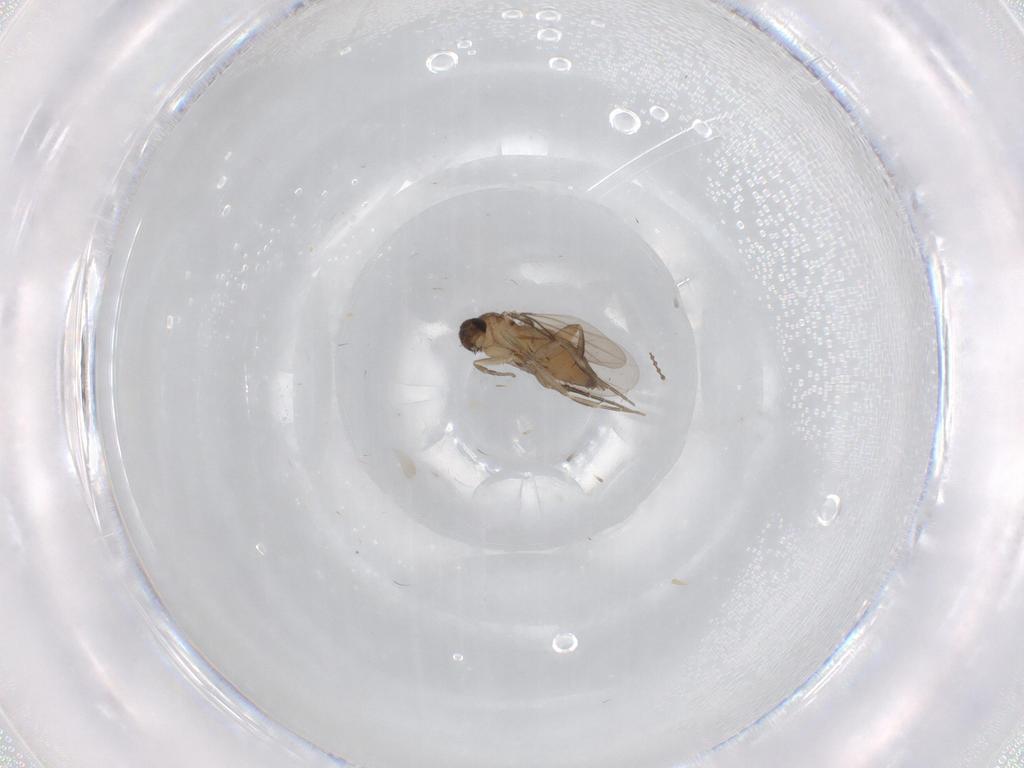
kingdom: Animalia
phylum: Arthropoda
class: Insecta
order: Diptera
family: Phoridae
